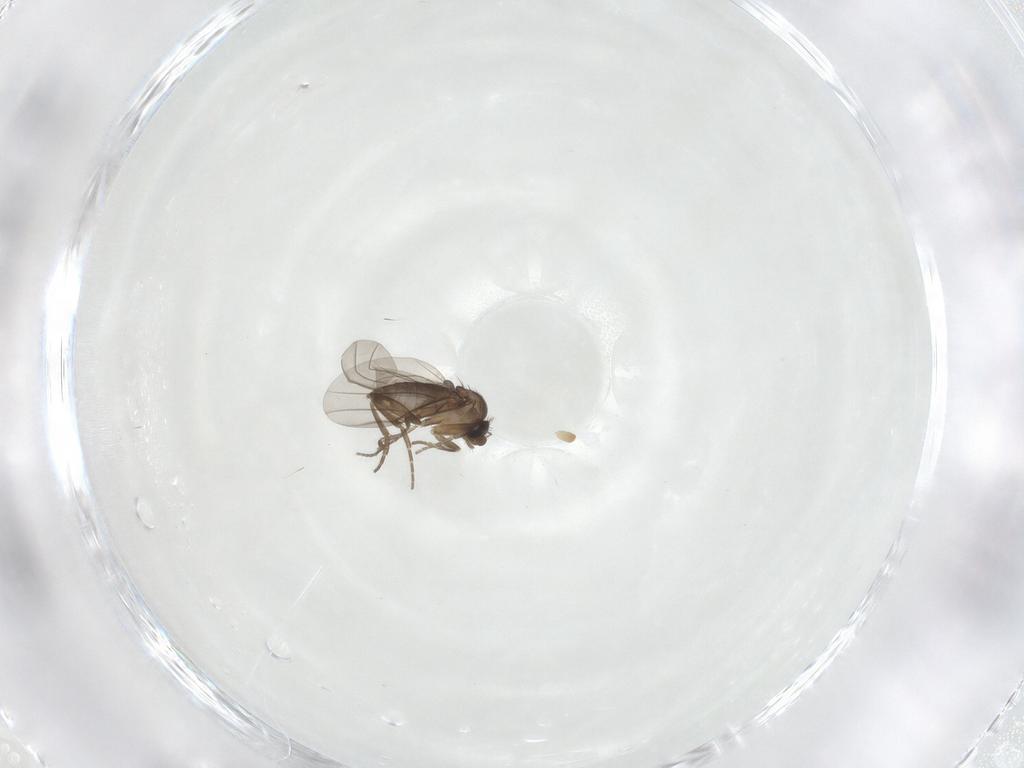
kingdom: Animalia
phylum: Arthropoda
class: Insecta
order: Diptera
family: Phoridae
